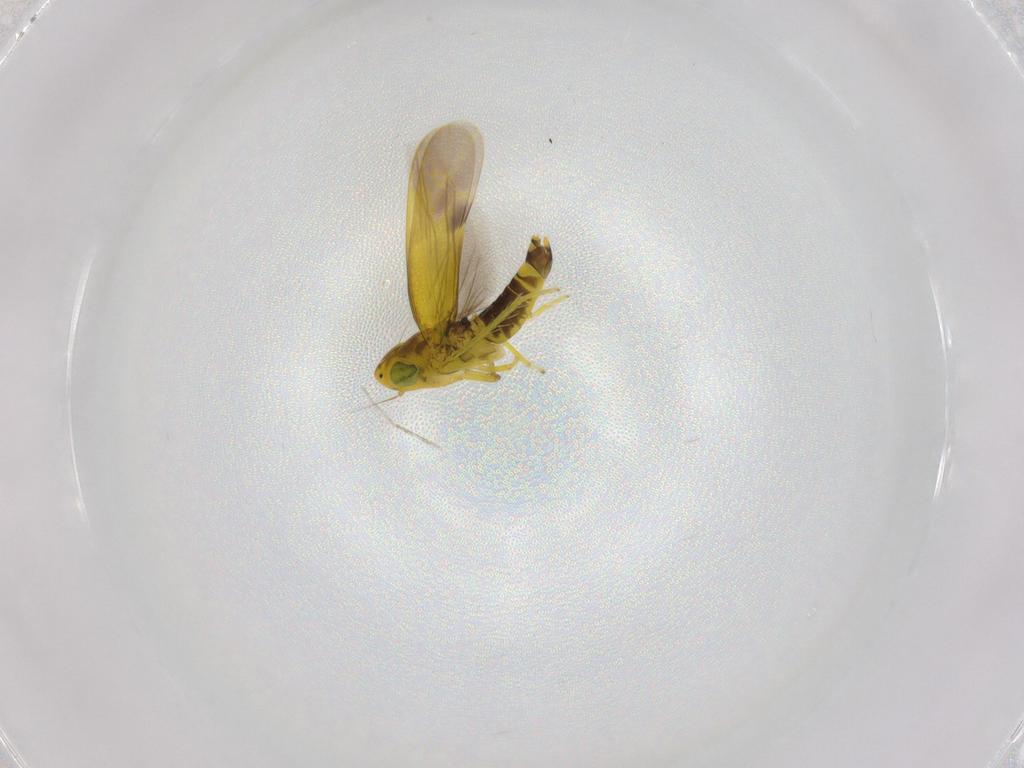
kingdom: Animalia
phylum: Arthropoda
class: Insecta
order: Hemiptera
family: Cicadellidae
